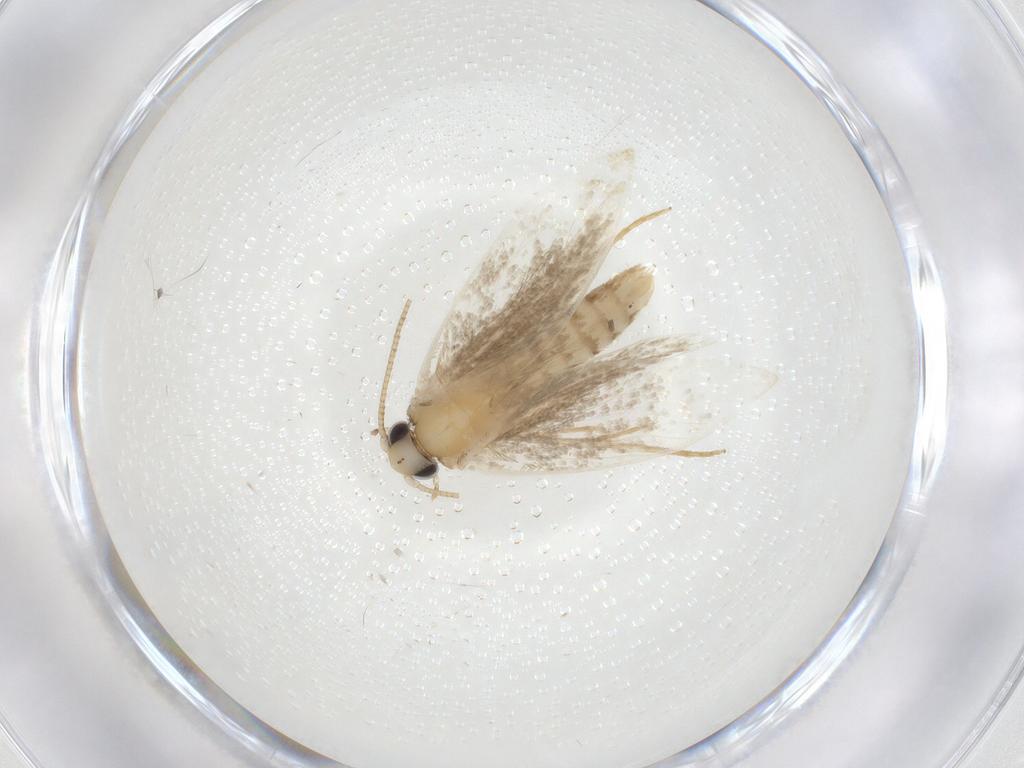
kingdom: Animalia
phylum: Arthropoda
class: Insecta
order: Lepidoptera
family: Tineidae
